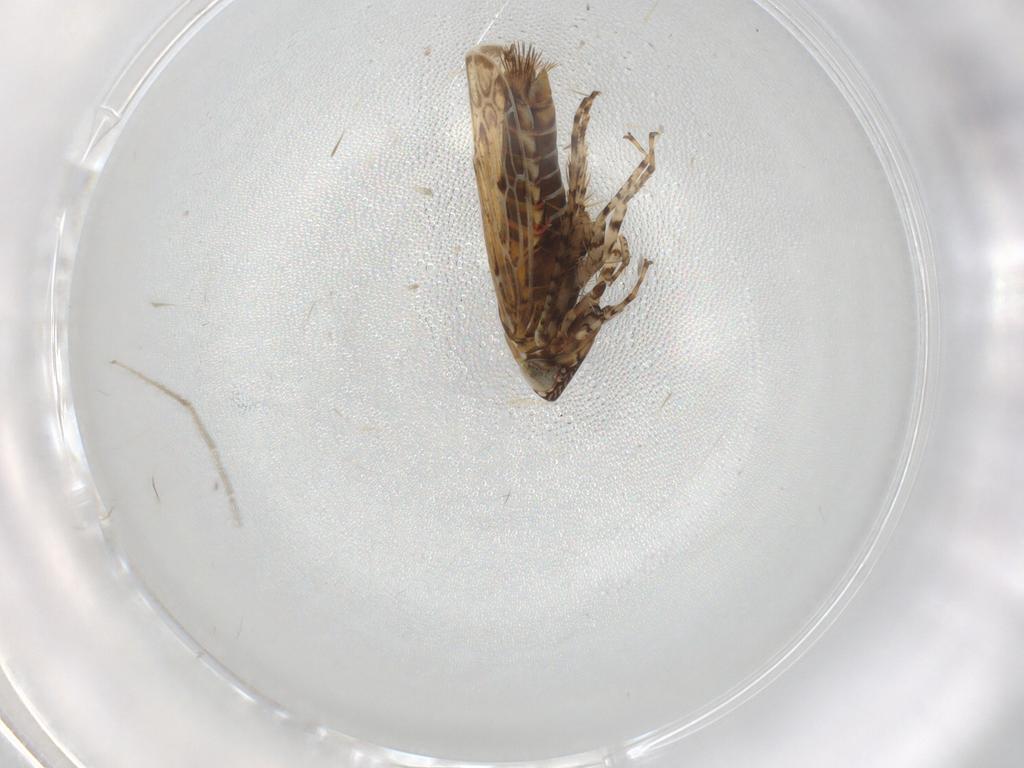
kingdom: Animalia
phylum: Arthropoda
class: Insecta
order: Hemiptera
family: Cicadellidae
